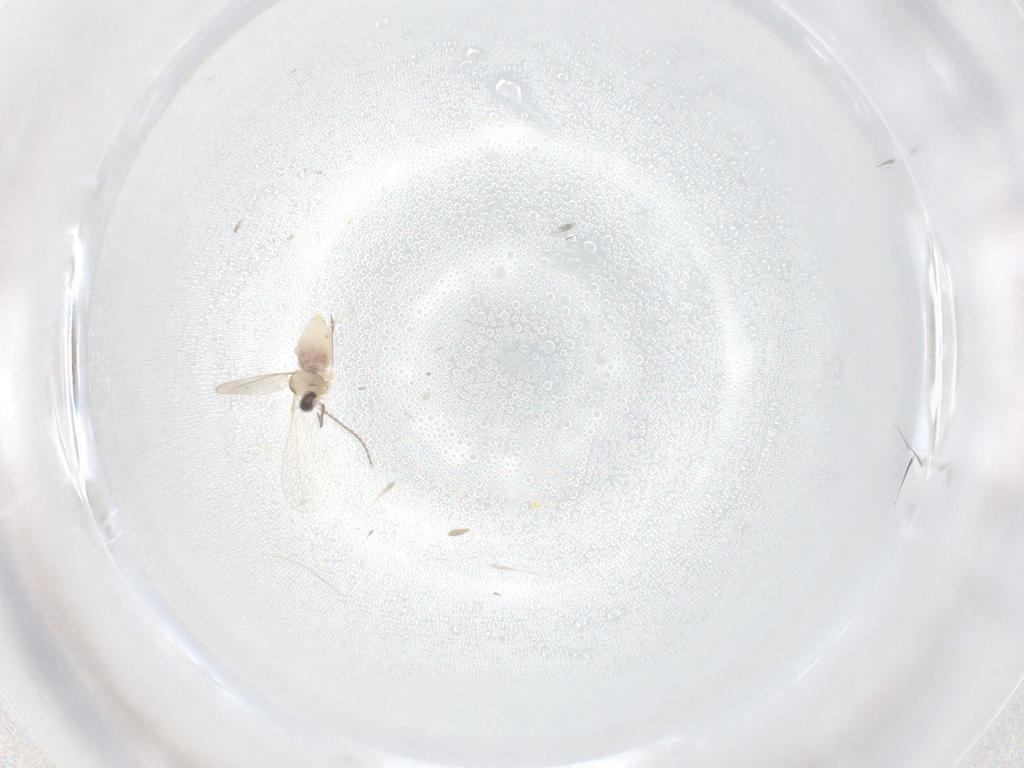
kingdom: Animalia
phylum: Arthropoda
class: Insecta
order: Diptera
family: Cecidomyiidae
